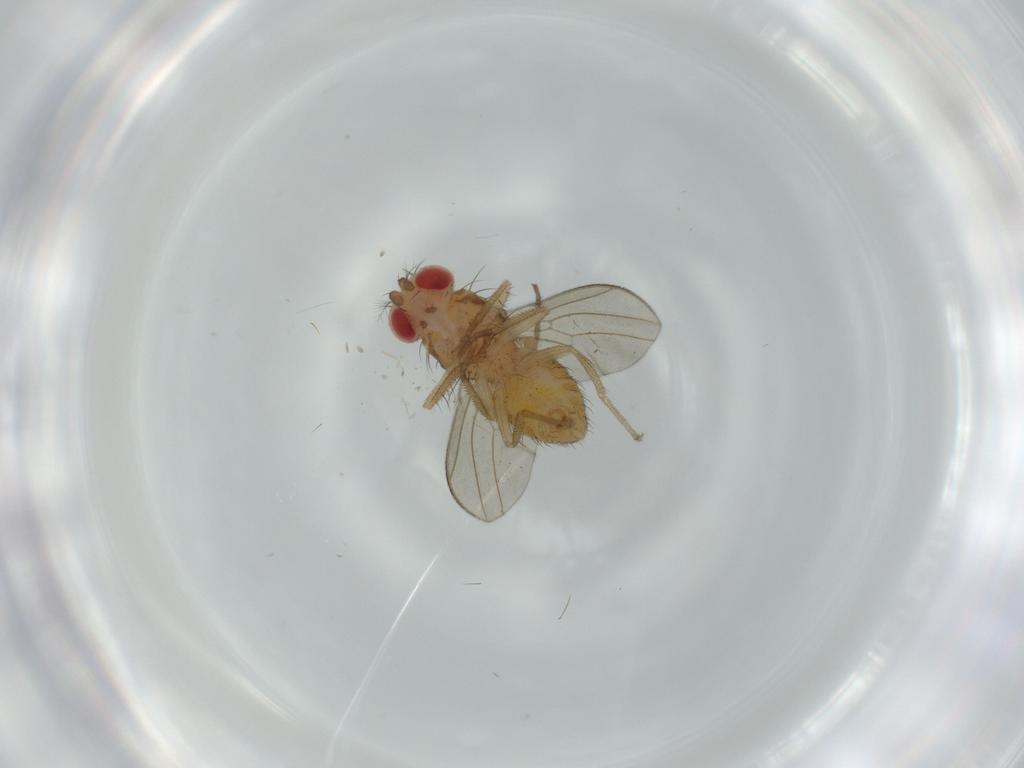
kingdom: Animalia
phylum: Arthropoda
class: Insecta
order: Diptera
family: Drosophilidae
